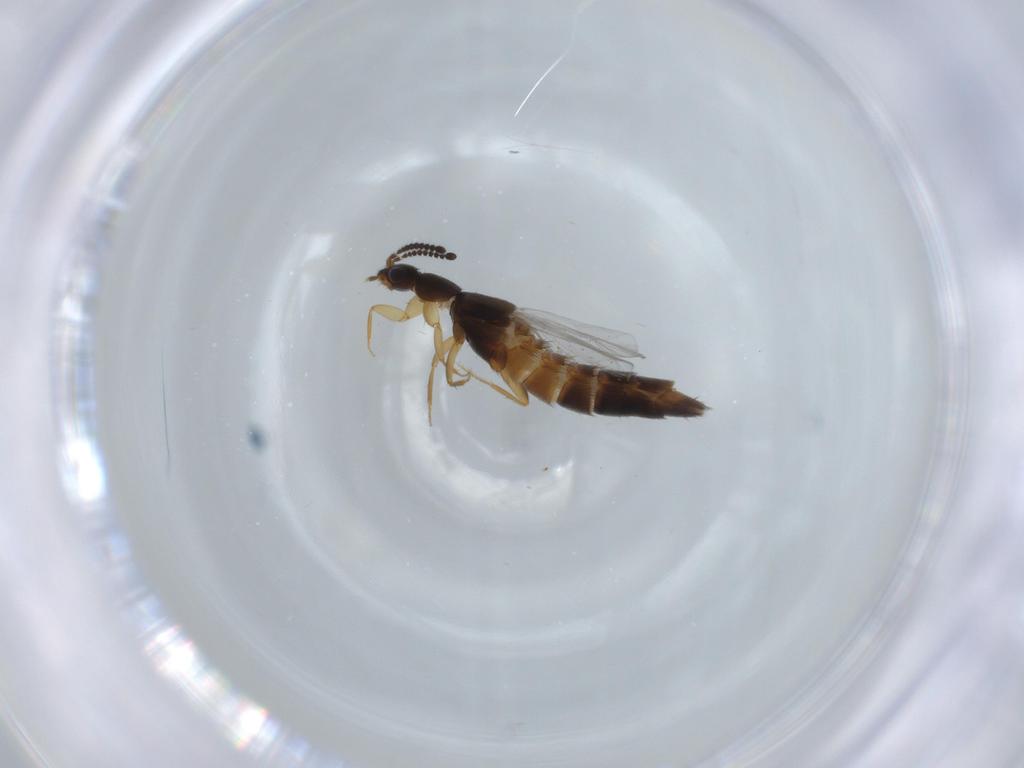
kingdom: Animalia
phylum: Arthropoda
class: Insecta
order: Coleoptera
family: Staphylinidae
